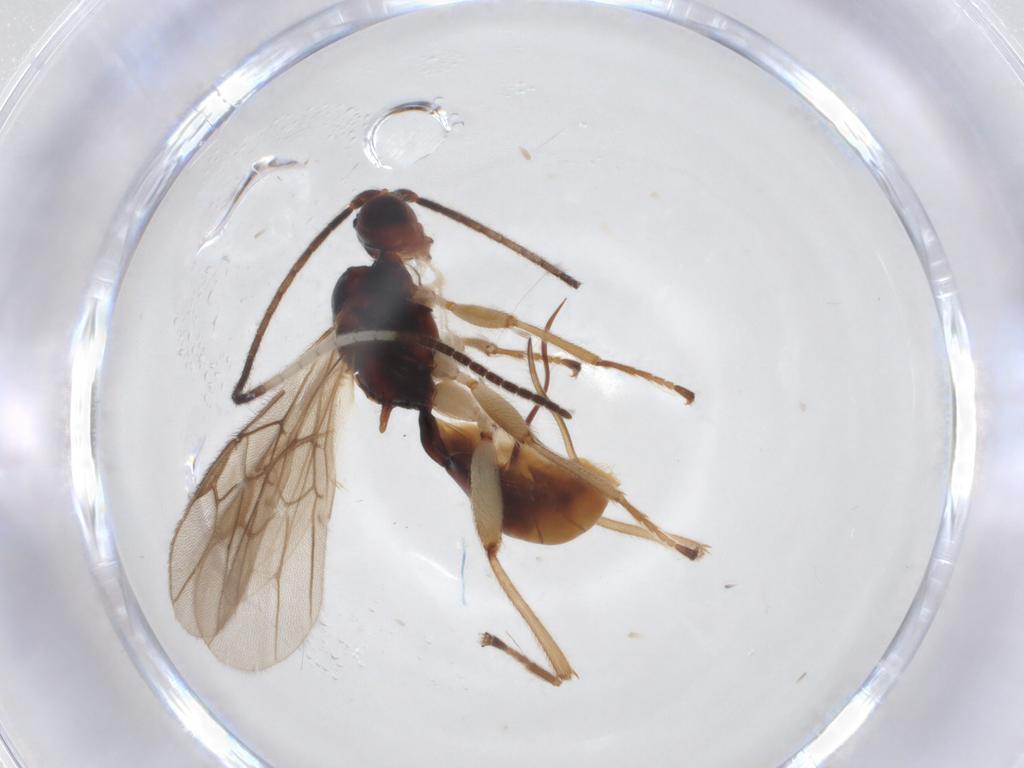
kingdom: Animalia
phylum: Arthropoda
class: Insecta
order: Hymenoptera
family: Braconidae
